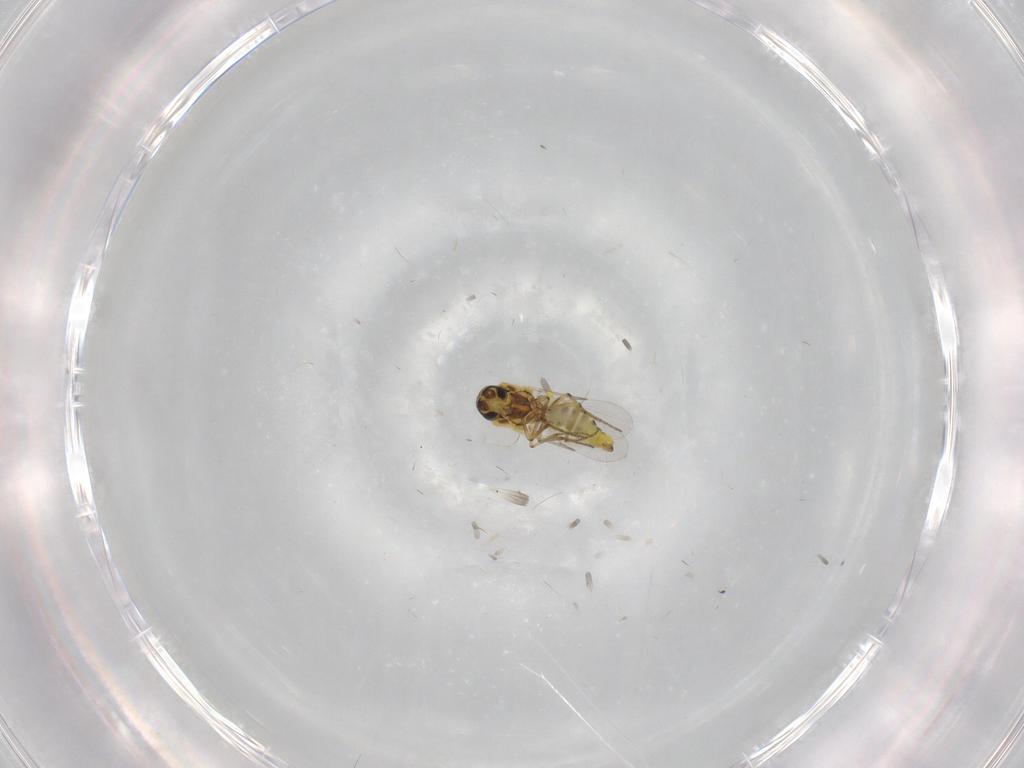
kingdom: Animalia
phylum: Arthropoda
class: Insecta
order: Diptera
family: Ceratopogonidae
